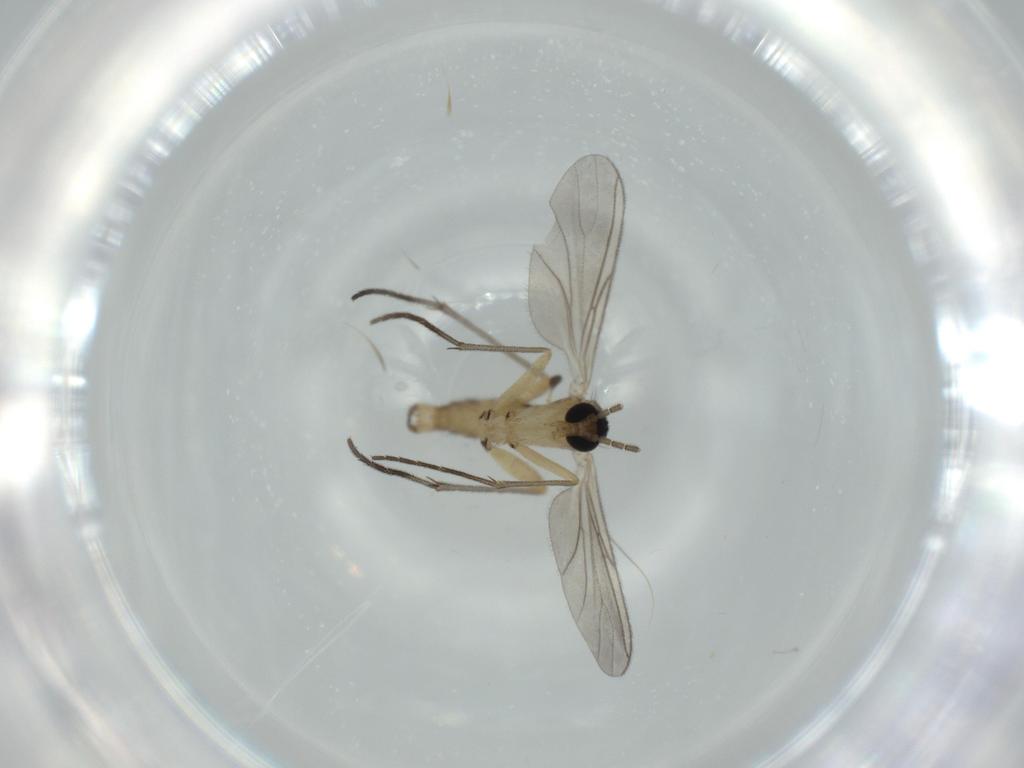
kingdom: Animalia
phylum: Arthropoda
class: Insecta
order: Diptera
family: Sciaridae
